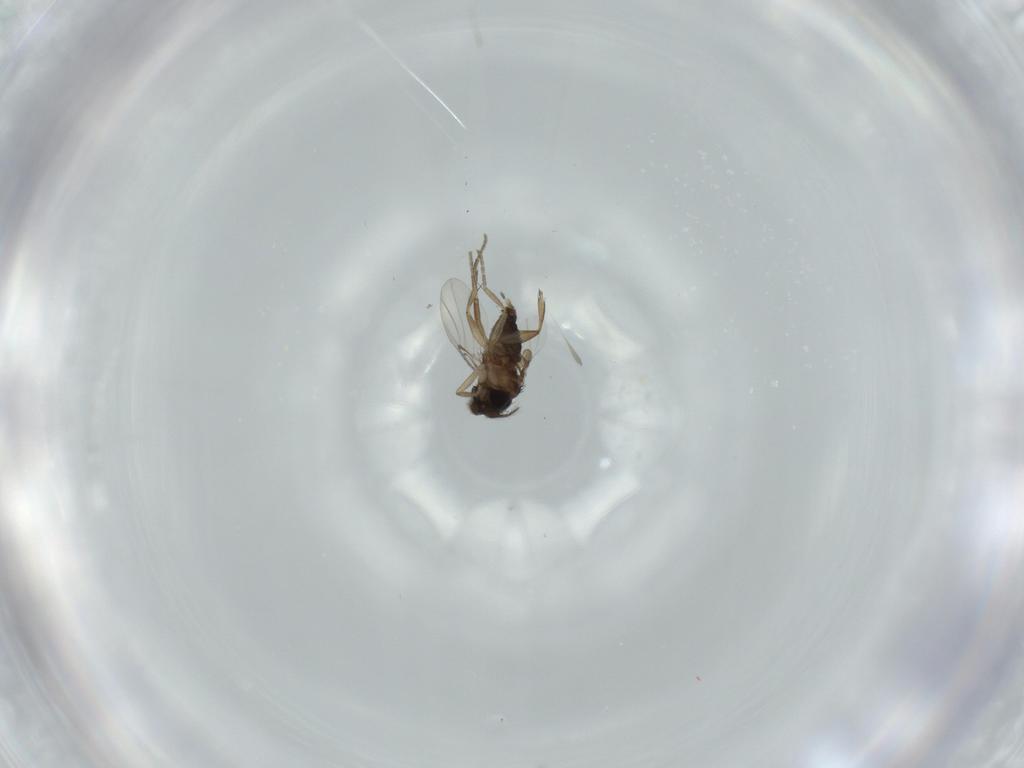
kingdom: Animalia
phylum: Arthropoda
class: Insecta
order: Diptera
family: Phoridae
